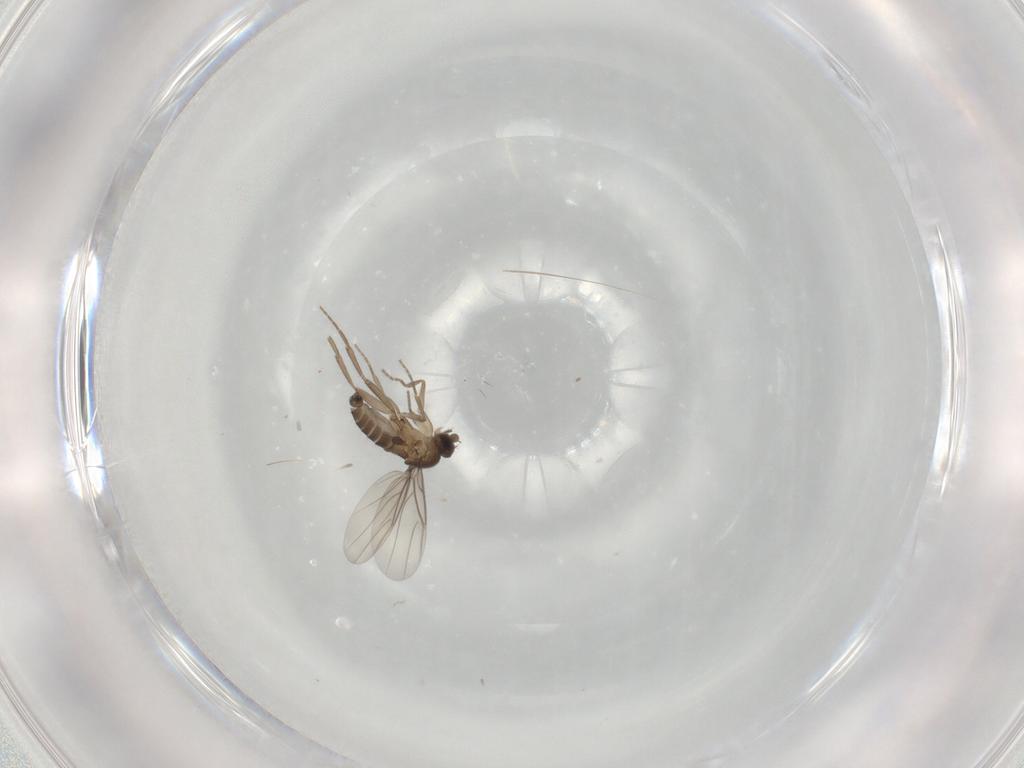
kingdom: Animalia
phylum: Arthropoda
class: Insecta
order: Diptera
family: Phoridae
